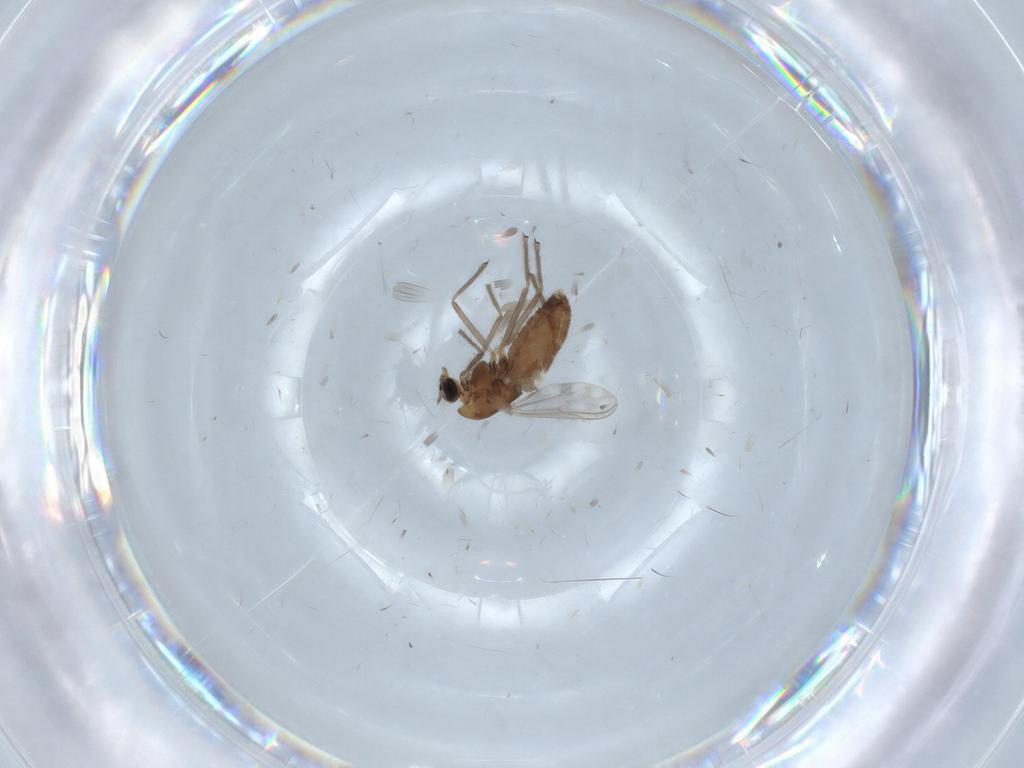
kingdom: Animalia
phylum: Arthropoda
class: Insecta
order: Diptera
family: Chironomidae
